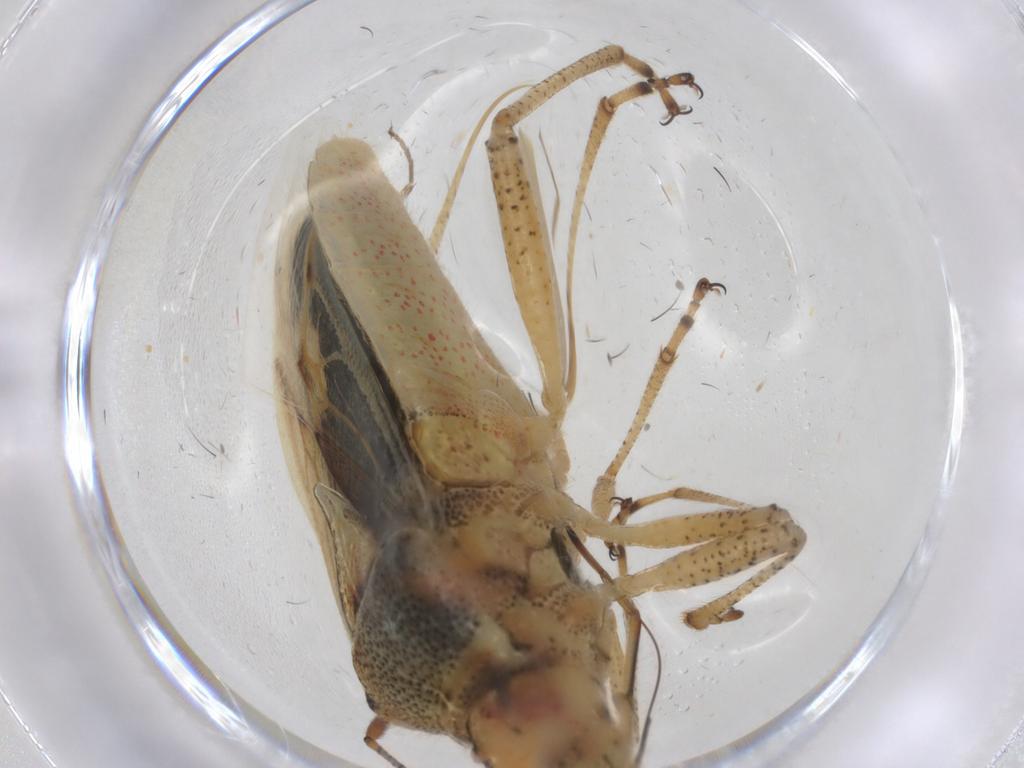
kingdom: Animalia
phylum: Arthropoda
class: Insecta
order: Hemiptera
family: Rhopalidae
